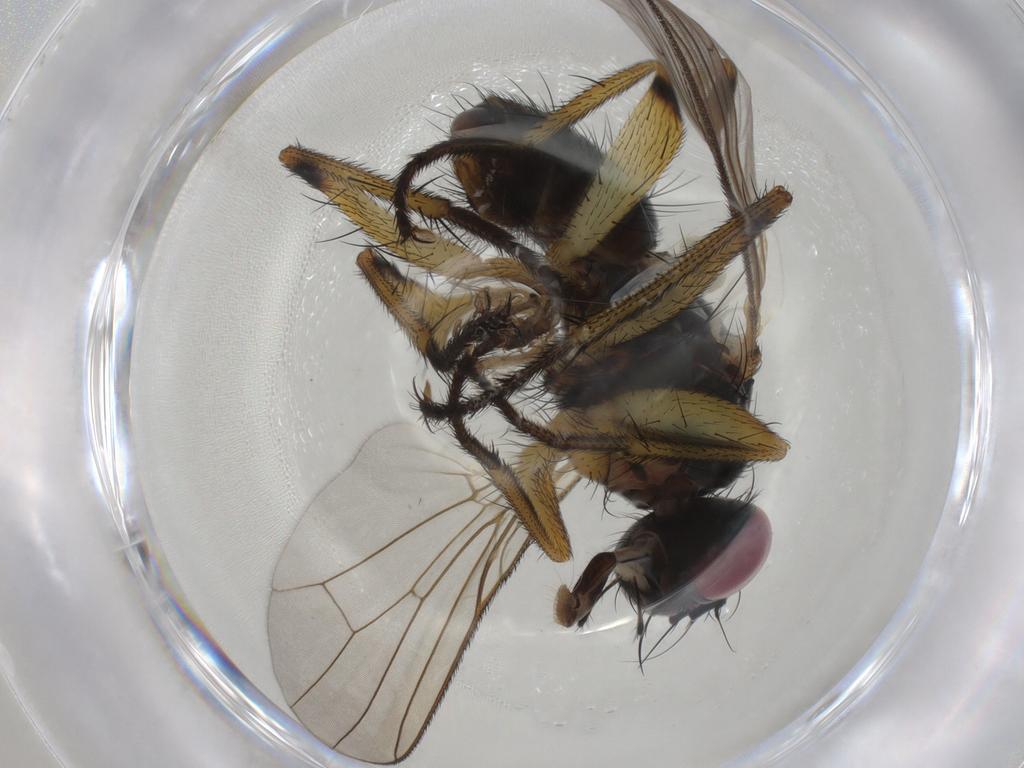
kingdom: Animalia
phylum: Arthropoda
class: Insecta
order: Diptera
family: Muscidae
